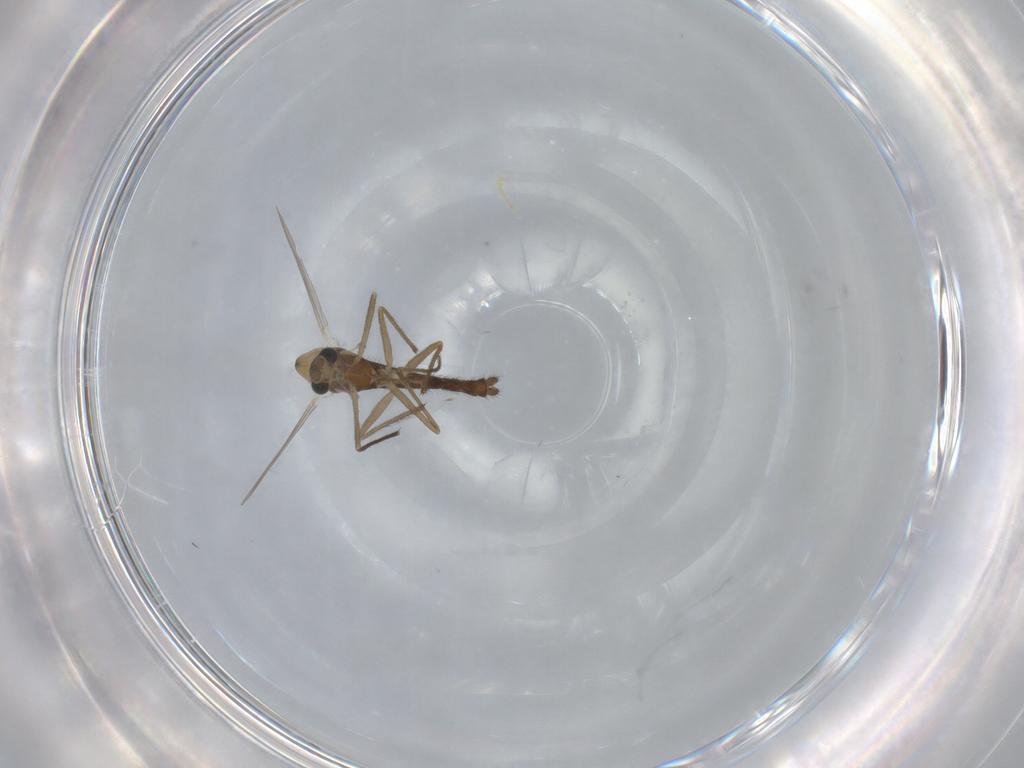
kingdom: Animalia
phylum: Arthropoda
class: Insecta
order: Diptera
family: Chironomidae
